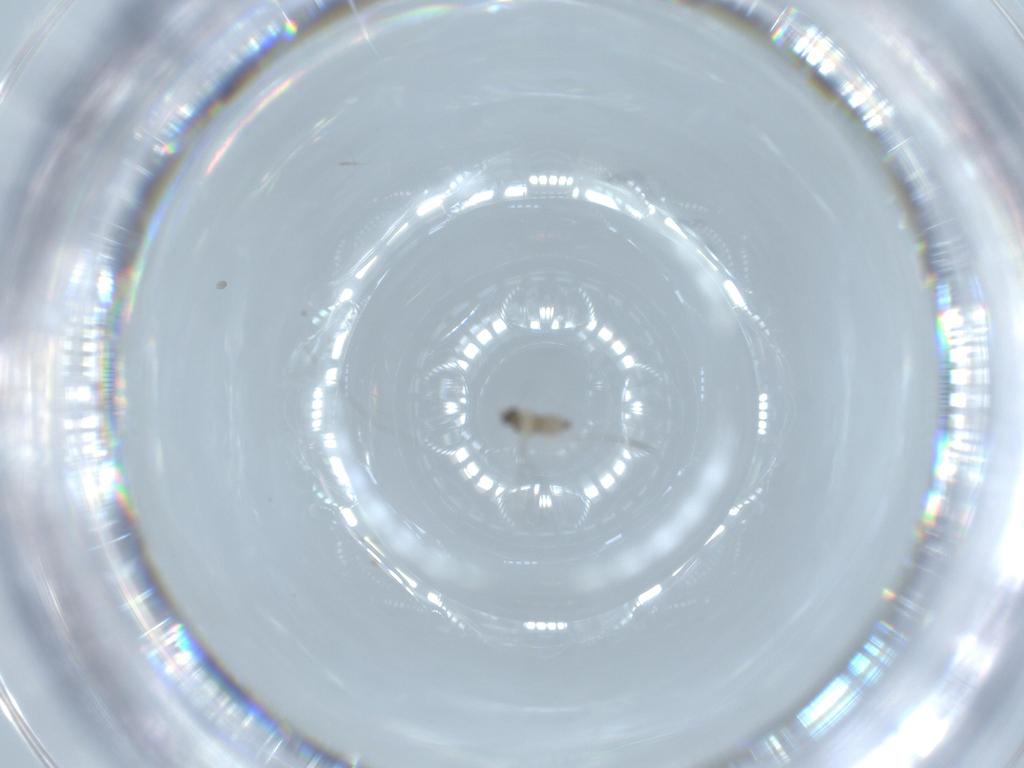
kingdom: Animalia
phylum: Arthropoda
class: Insecta
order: Diptera
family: Cecidomyiidae
